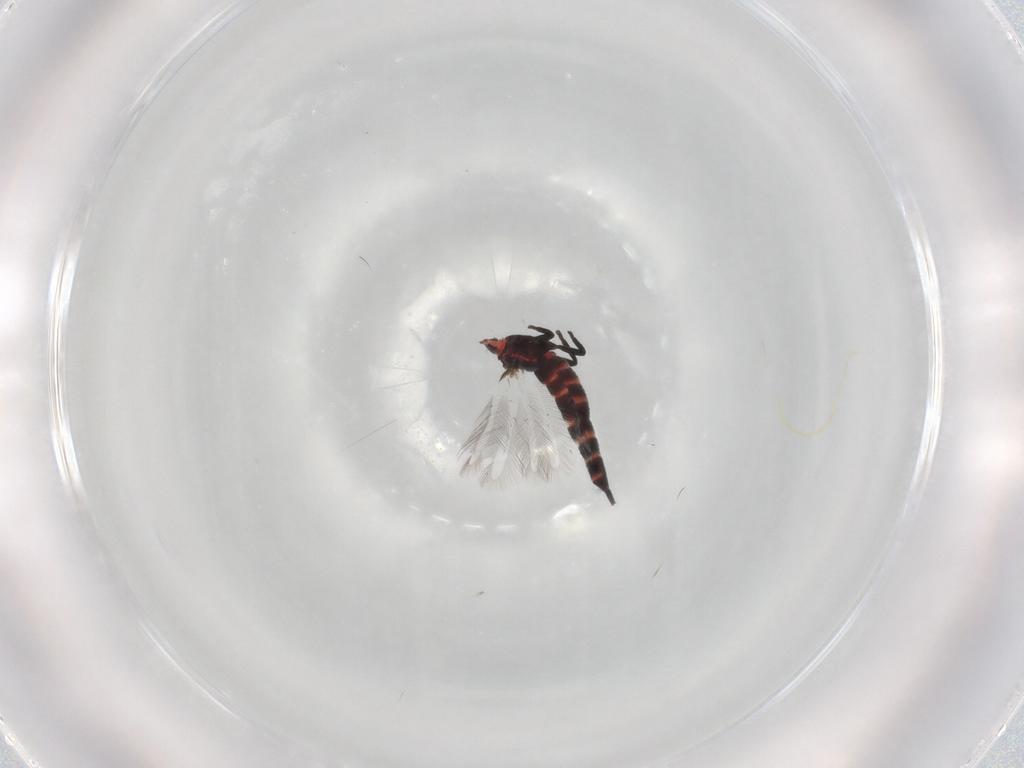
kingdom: Animalia
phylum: Arthropoda
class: Insecta
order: Thysanoptera
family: Phlaeothripidae
